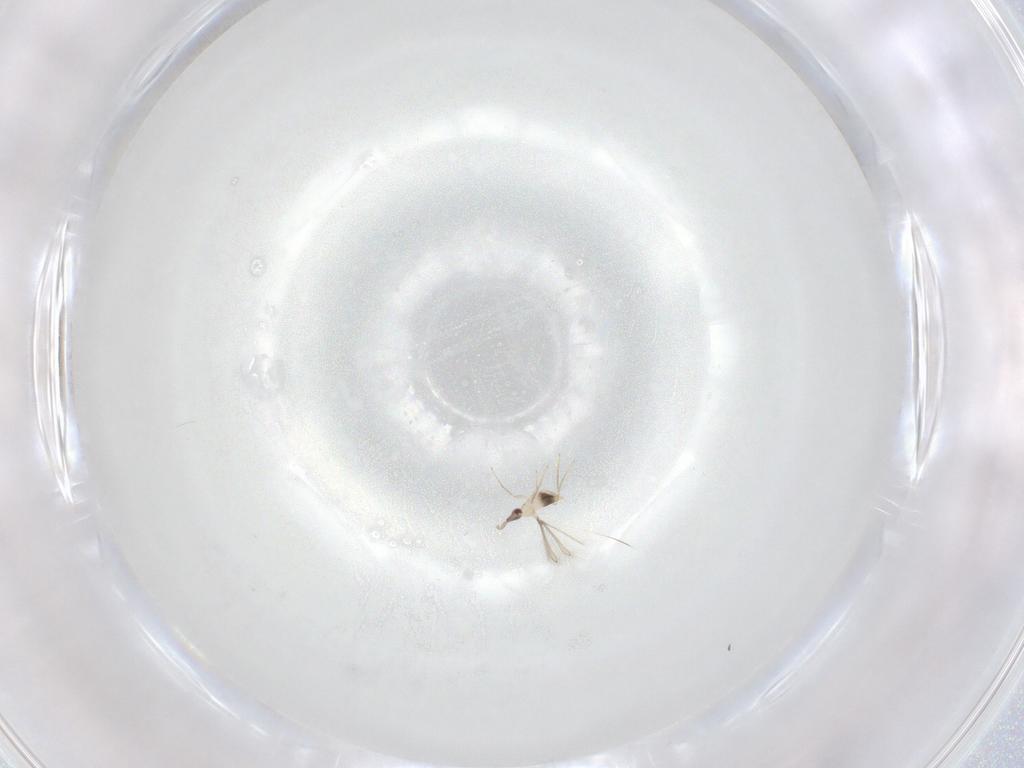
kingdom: Animalia
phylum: Arthropoda
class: Insecta
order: Hymenoptera
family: Mymaridae
